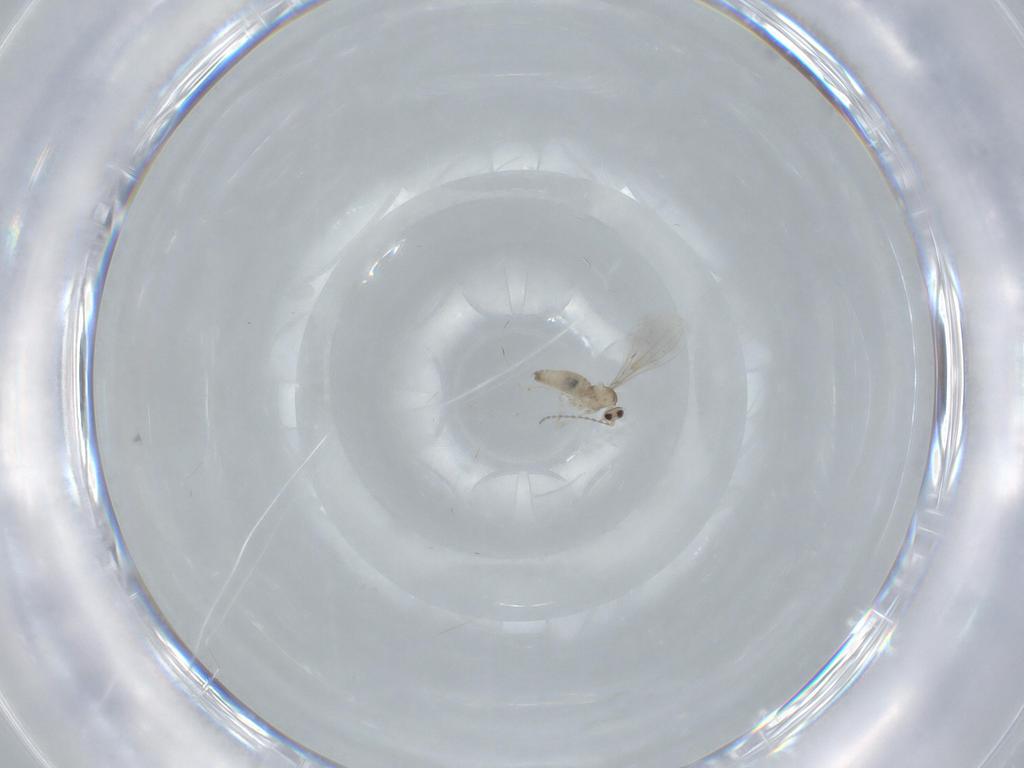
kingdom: Animalia
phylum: Arthropoda
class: Insecta
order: Diptera
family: Cecidomyiidae
